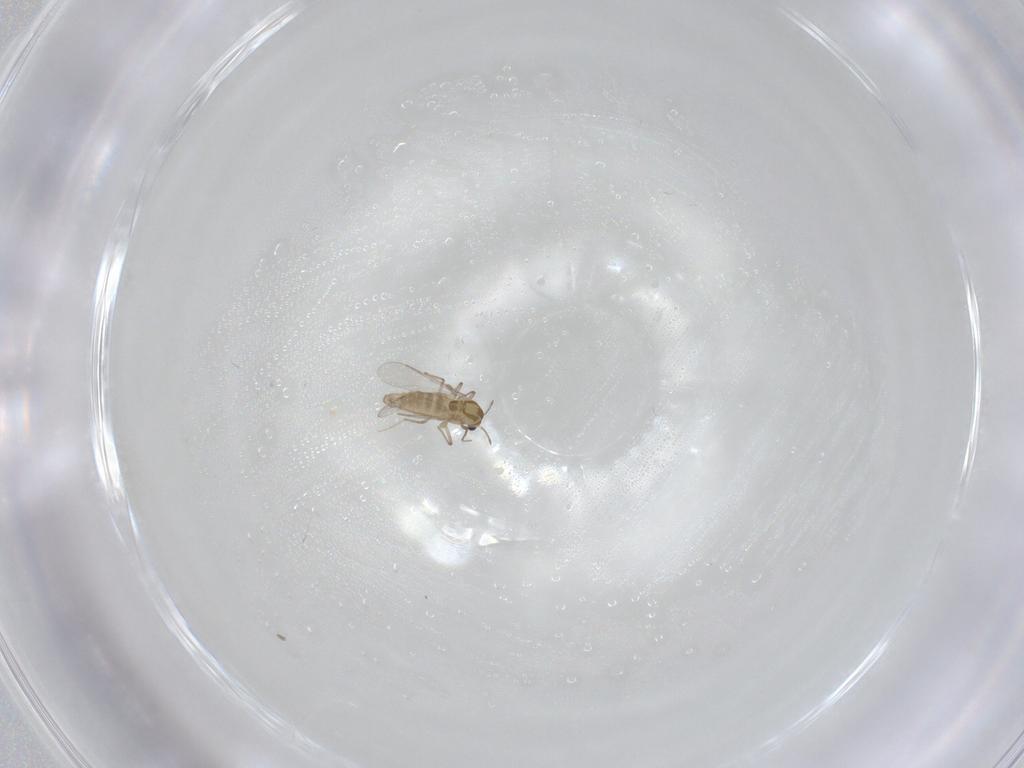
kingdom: Animalia
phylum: Arthropoda
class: Insecta
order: Diptera
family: Chironomidae
